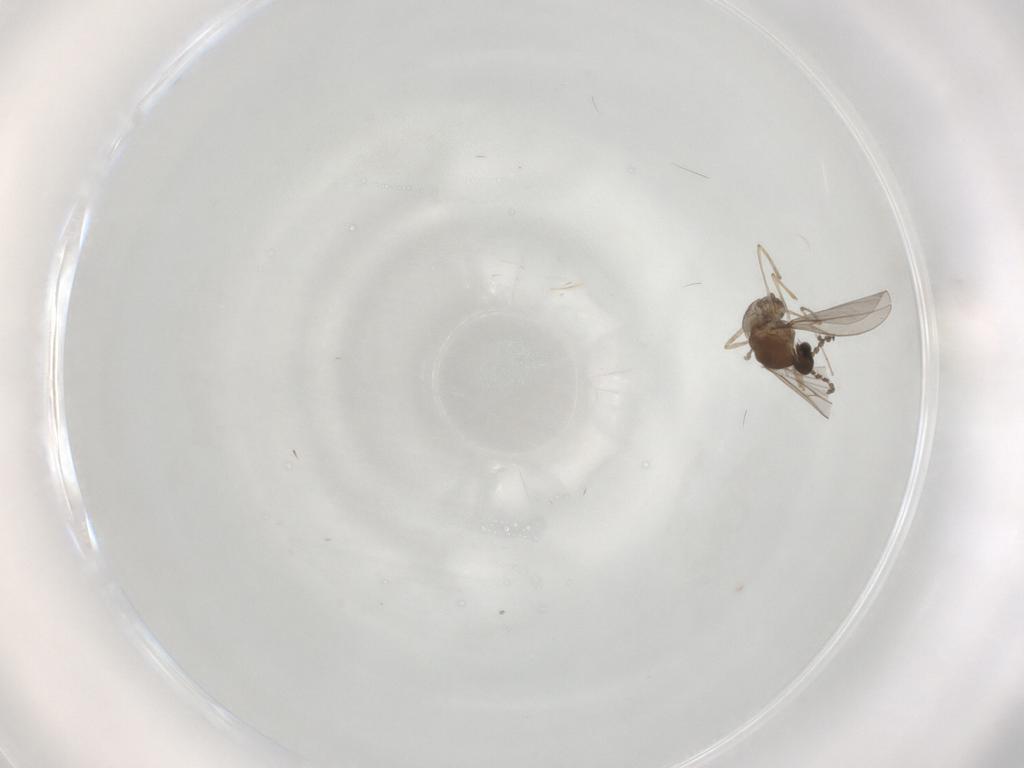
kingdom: Animalia
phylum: Arthropoda
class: Insecta
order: Diptera
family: Cecidomyiidae
